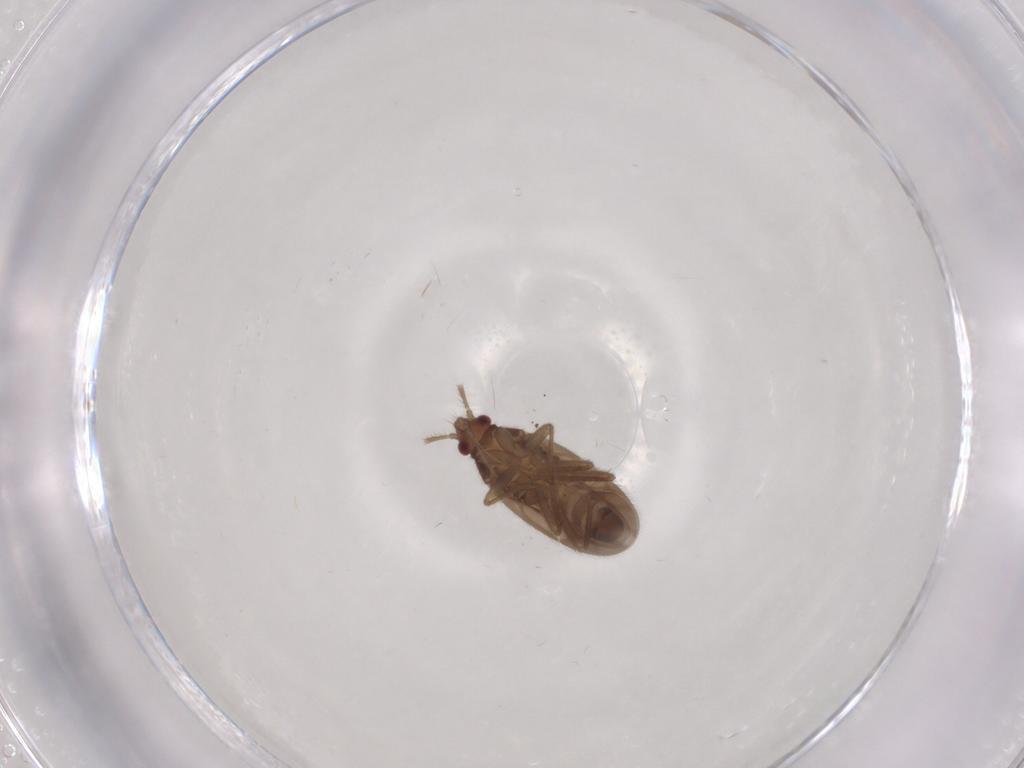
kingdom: Animalia
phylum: Arthropoda
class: Insecta
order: Hemiptera
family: Ceratocombidae
